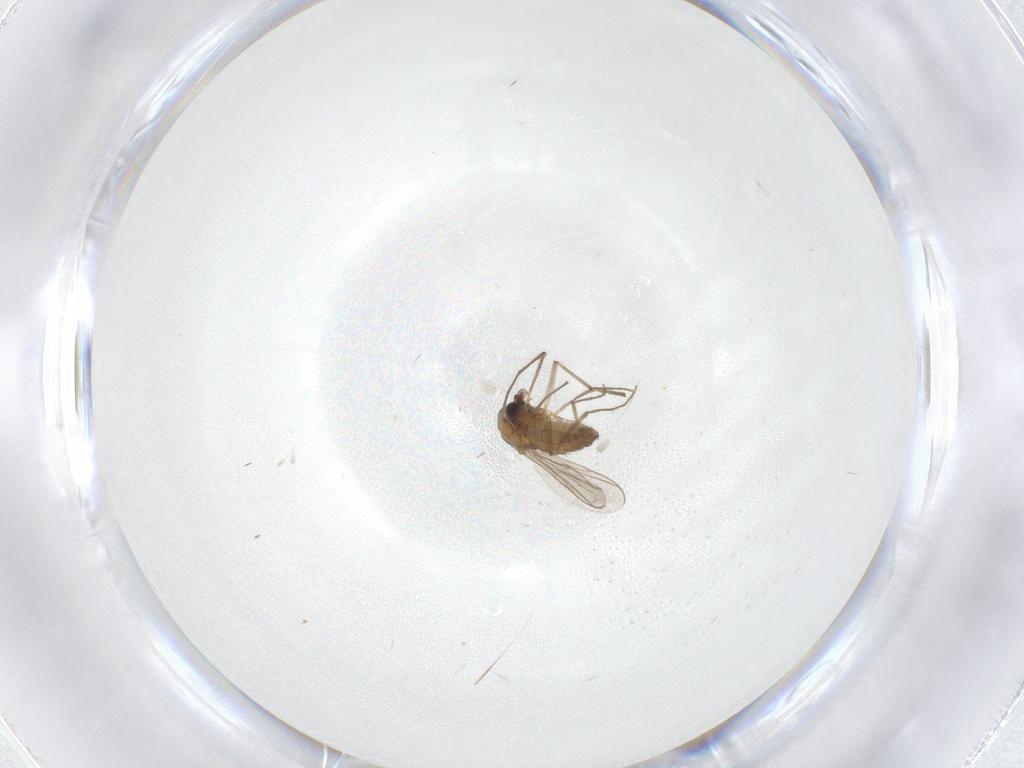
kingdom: Animalia
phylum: Arthropoda
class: Insecta
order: Diptera
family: Chironomidae
